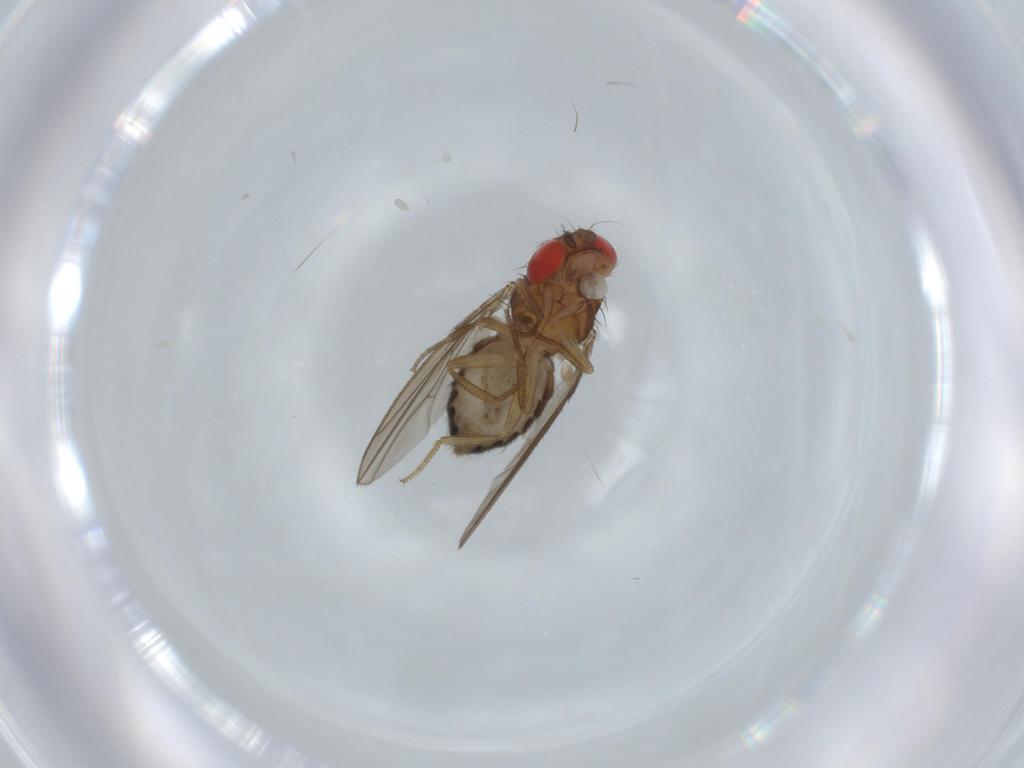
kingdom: Animalia
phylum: Arthropoda
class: Insecta
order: Diptera
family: Drosophilidae
